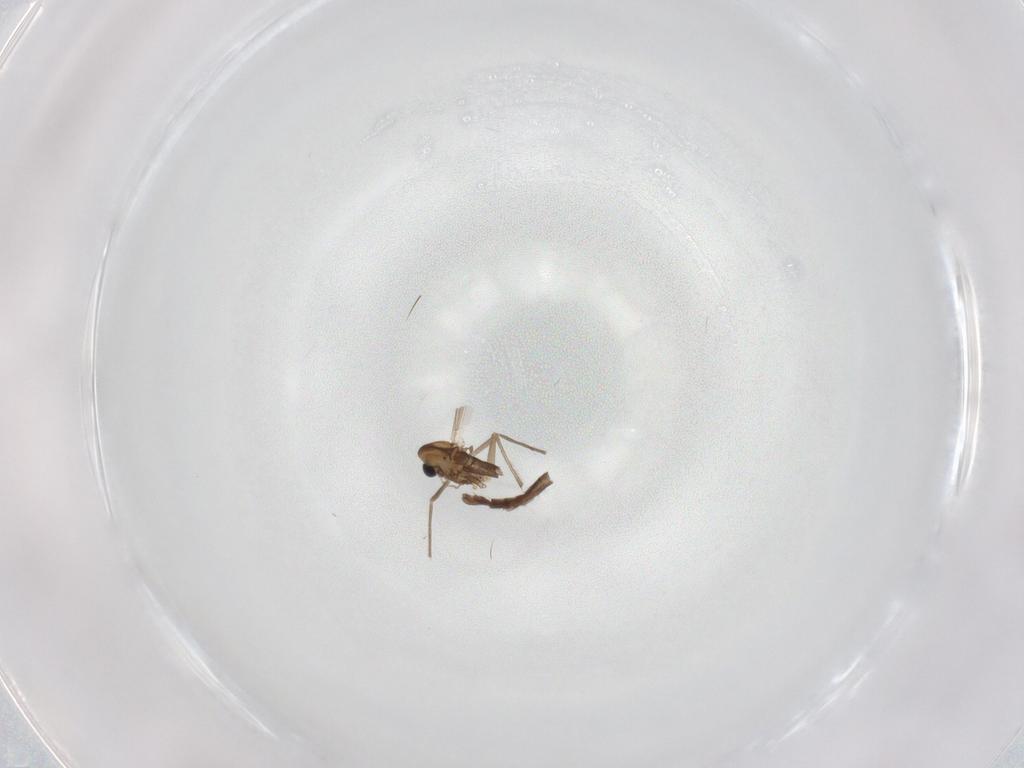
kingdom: Animalia
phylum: Arthropoda
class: Insecta
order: Diptera
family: Chironomidae
